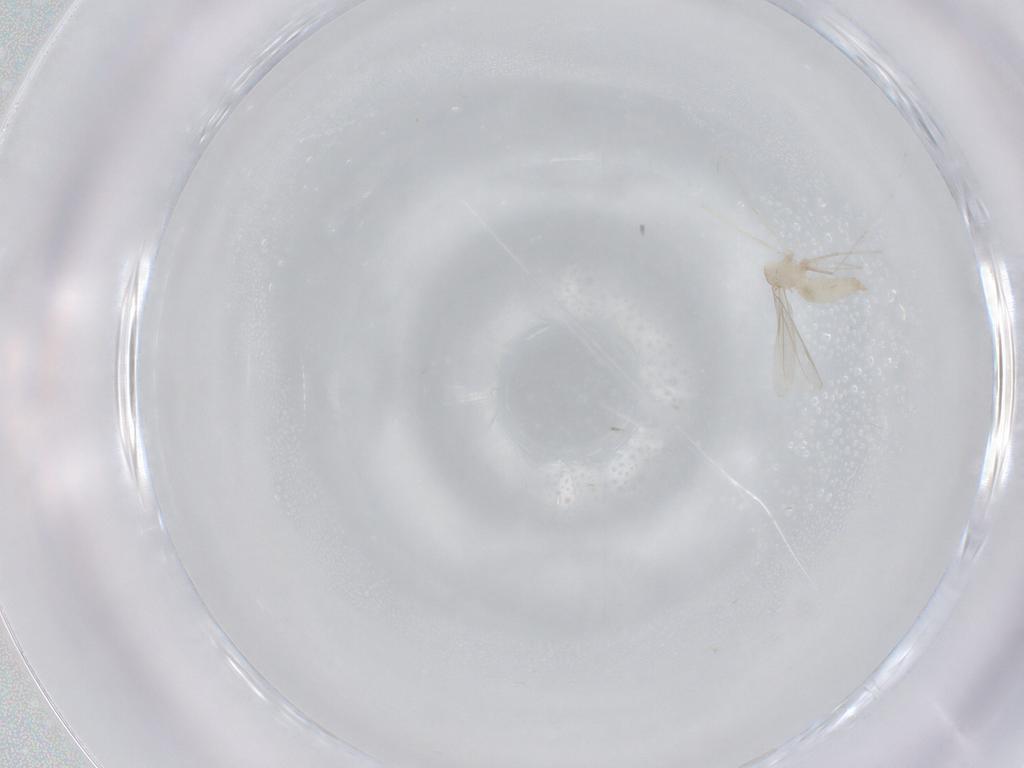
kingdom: Animalia
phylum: Arthropoda
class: Insecta
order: Diptera
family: Cecidomyiidae
